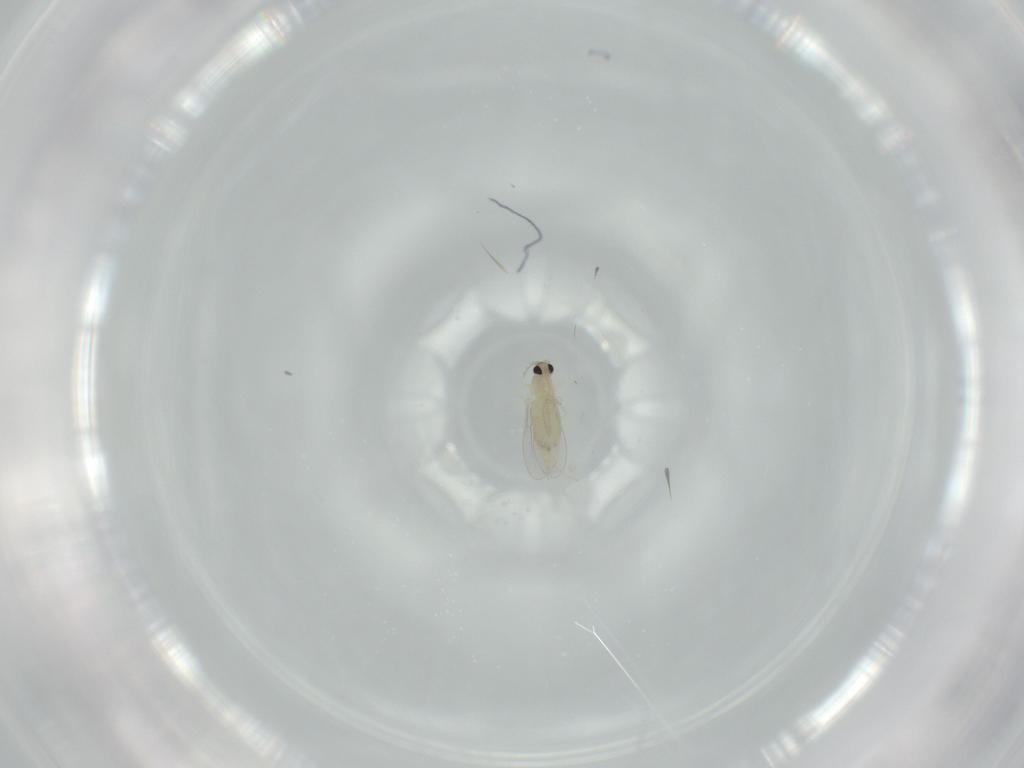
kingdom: Animalia
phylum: Arthropoda
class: Insecta
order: Diptera
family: Cecidomyiidae
